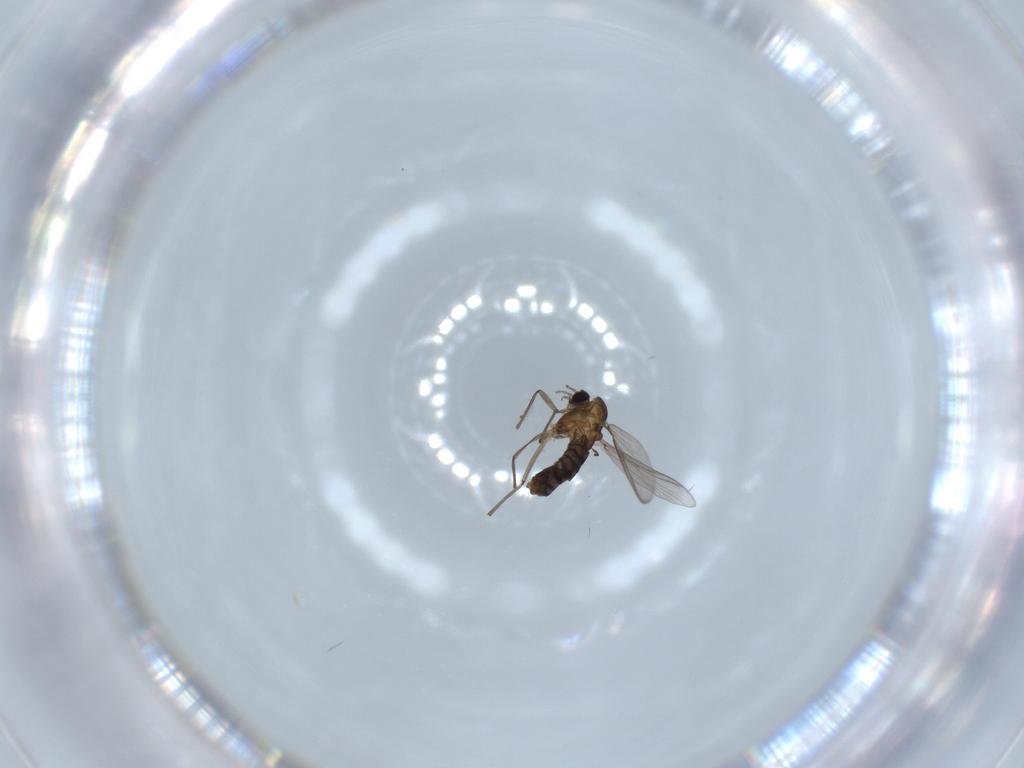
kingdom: Animalia
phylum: Arthropoda
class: Insecta
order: Diptera
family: Chironomidae
